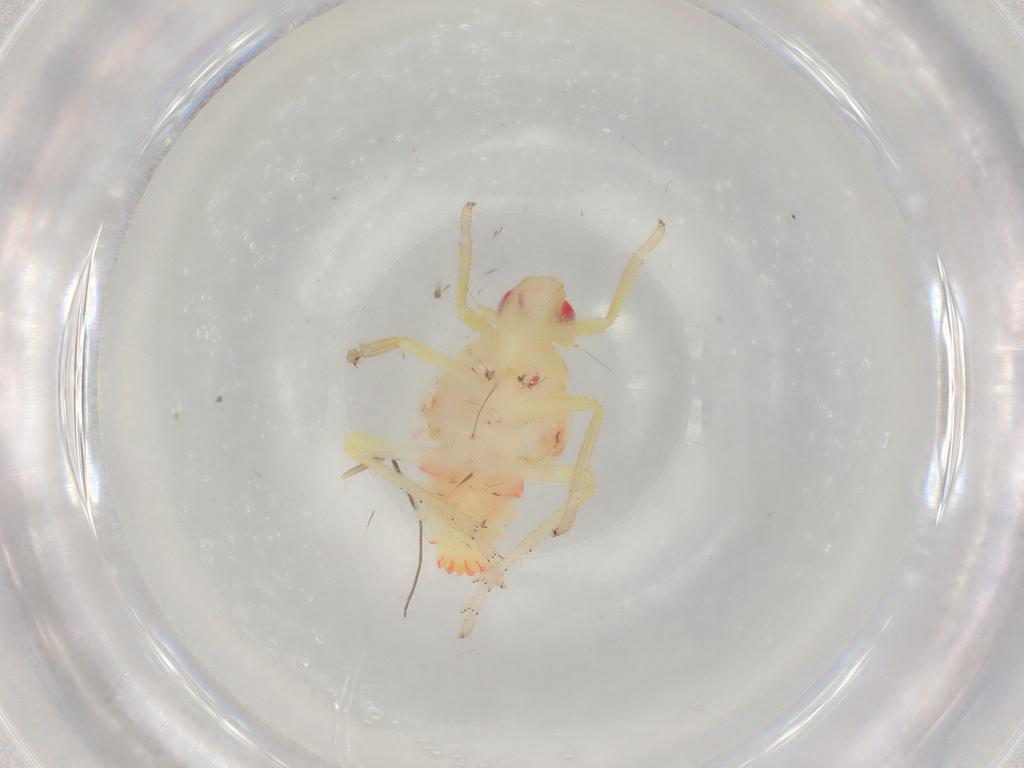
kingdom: Animalia
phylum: Arthropoda
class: Insecta
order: Hemiptera
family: Tropiduchidae
